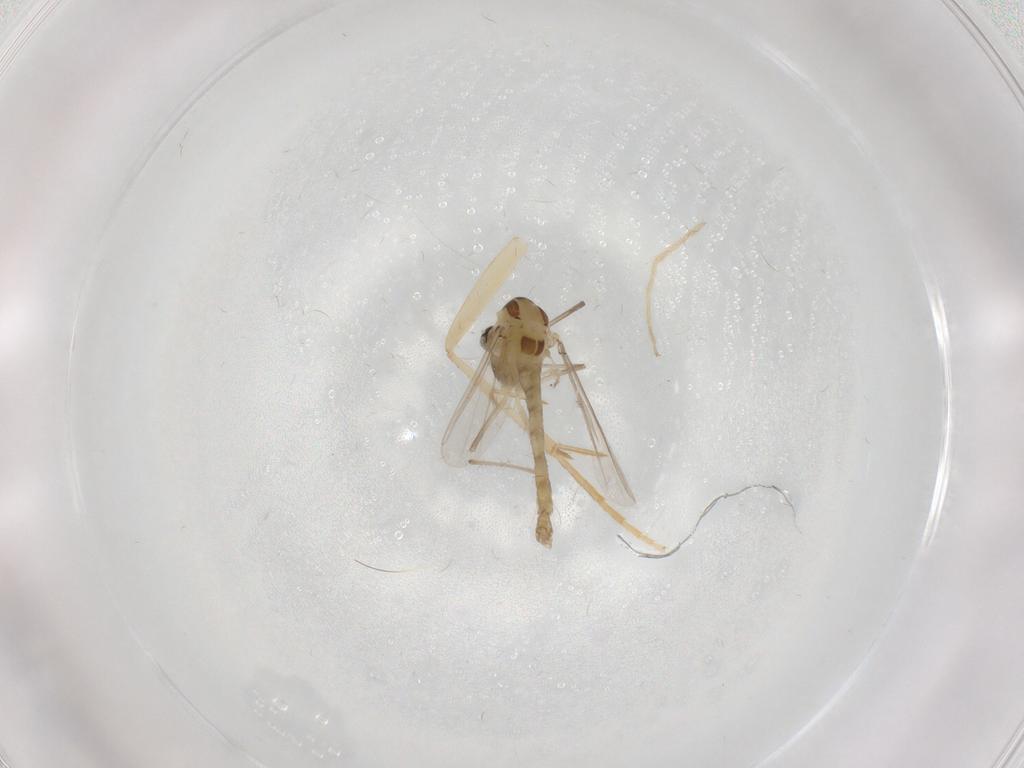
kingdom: Animalia
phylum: Arthropoda
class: Insecta
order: Diptera
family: Chironomidae
